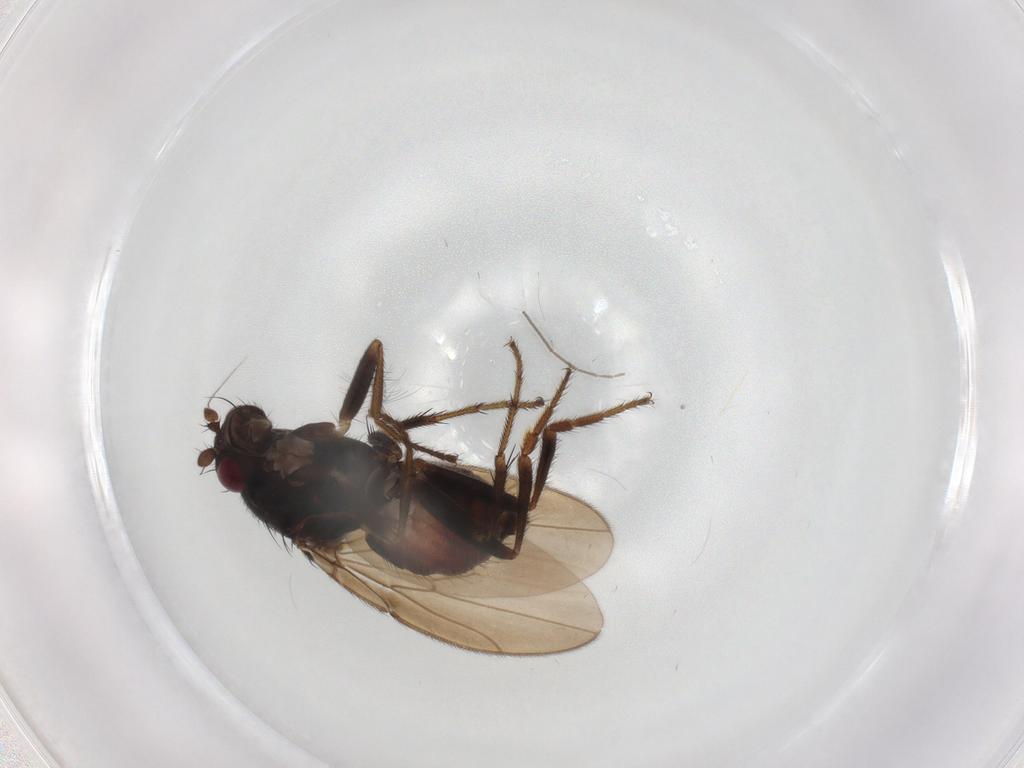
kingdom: Animalia
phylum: Arthropoda
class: Insecta
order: Diptera
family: Sphaeroceridae
